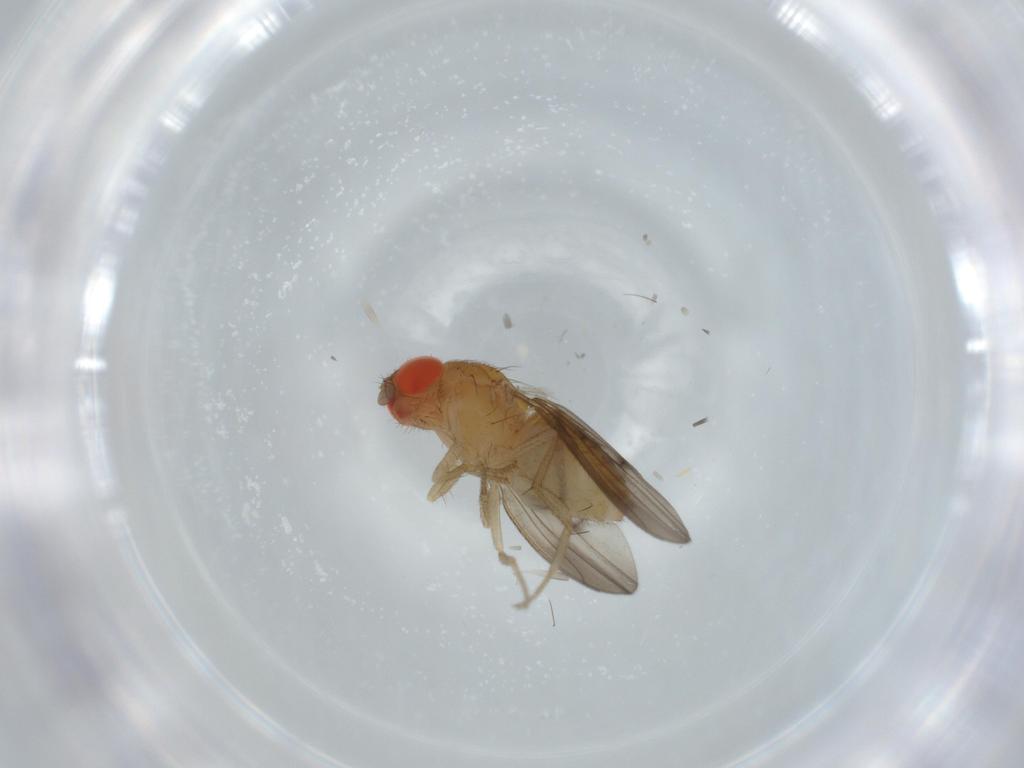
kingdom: Animalia
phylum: Arthropoda
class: Insecta
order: Diptera
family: Drosophilidae
